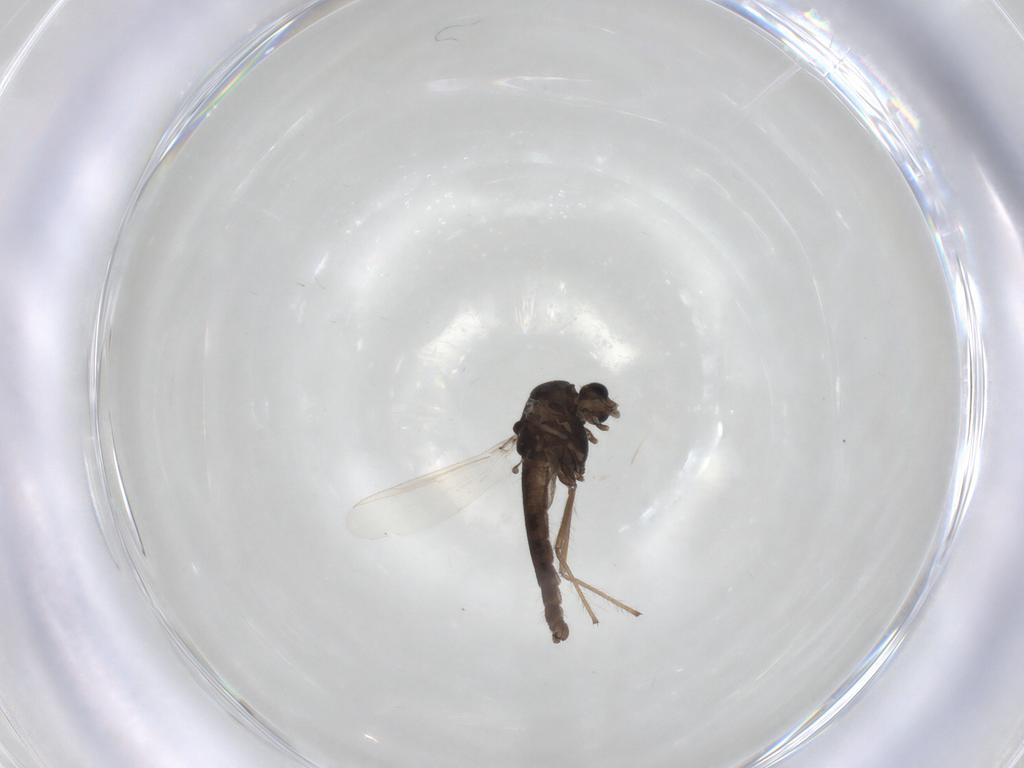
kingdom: Animalia
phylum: Arthropoda
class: Insecta
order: Diptera
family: Chironomidae
